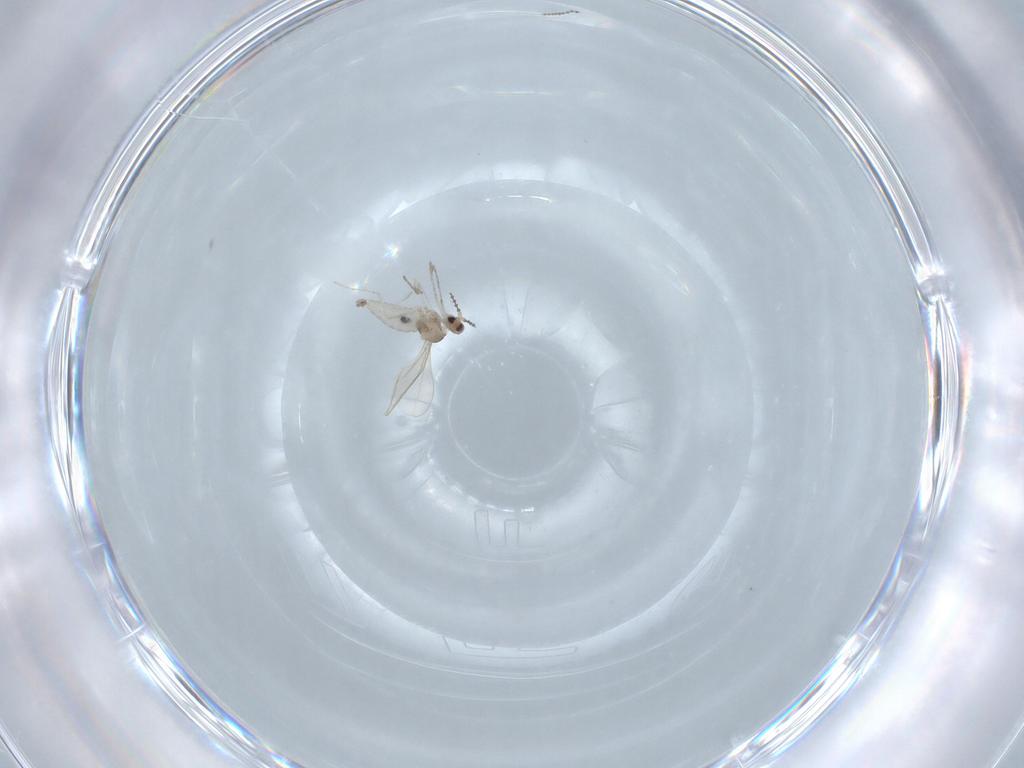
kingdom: Animalia
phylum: Arthropoda
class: Insecta
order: Diptera
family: Cecidomyiidae
